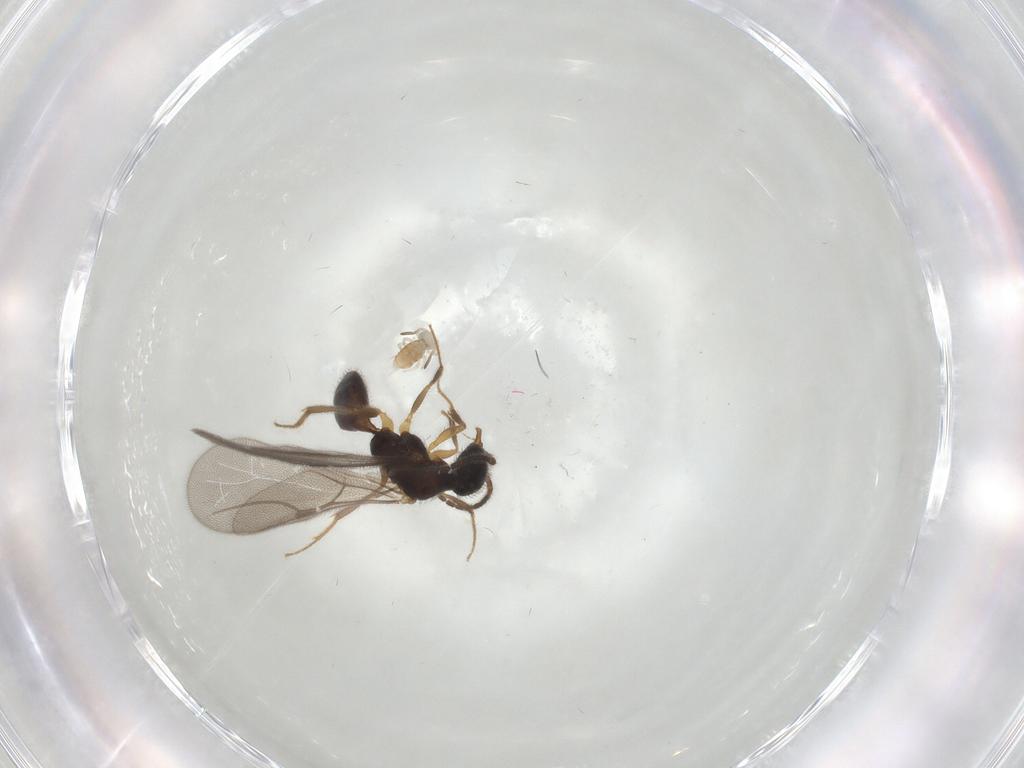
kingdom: Animalia
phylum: Arthropoda
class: Insecta
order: Hymenoptera
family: Bethylidae
